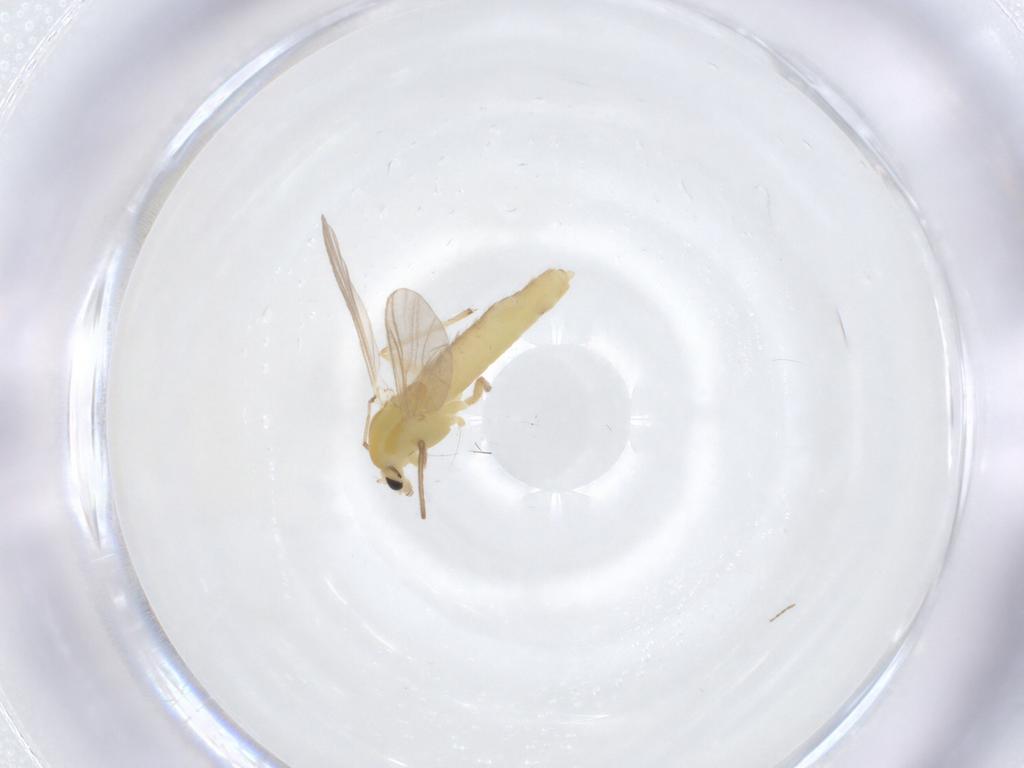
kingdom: Animalia
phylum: Arthropoda
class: Insecta
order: Diptera
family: Chironomidae
